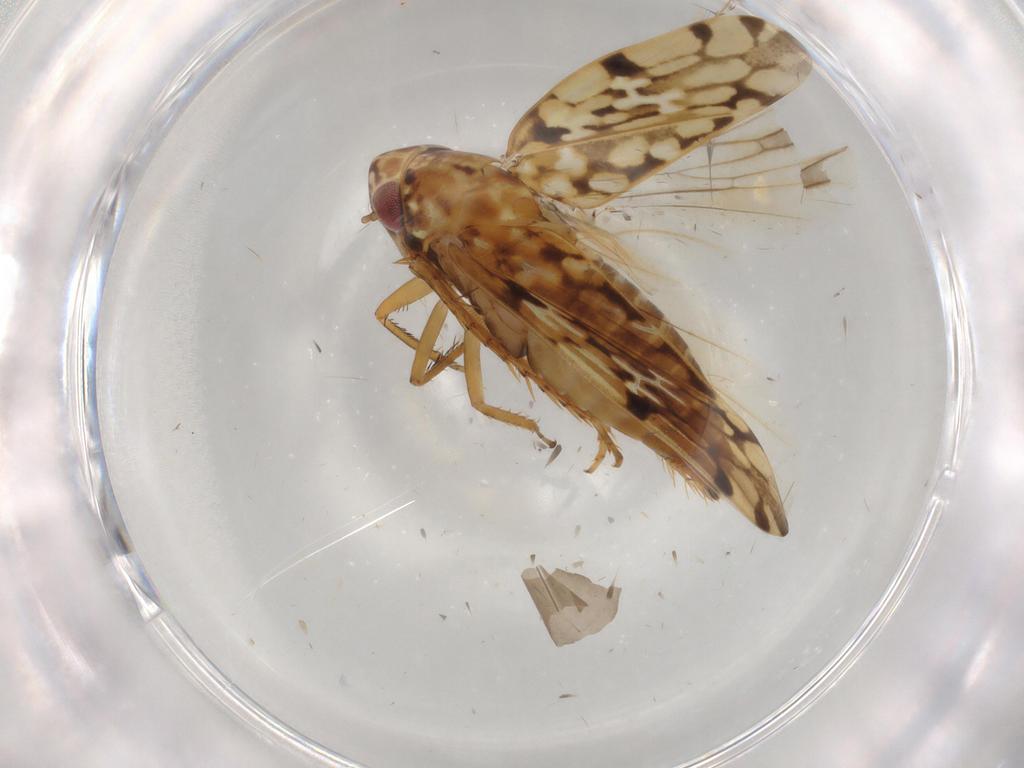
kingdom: Animalia
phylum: Arthropoda
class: Insecta
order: Hemiptera
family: Cicadellidae
